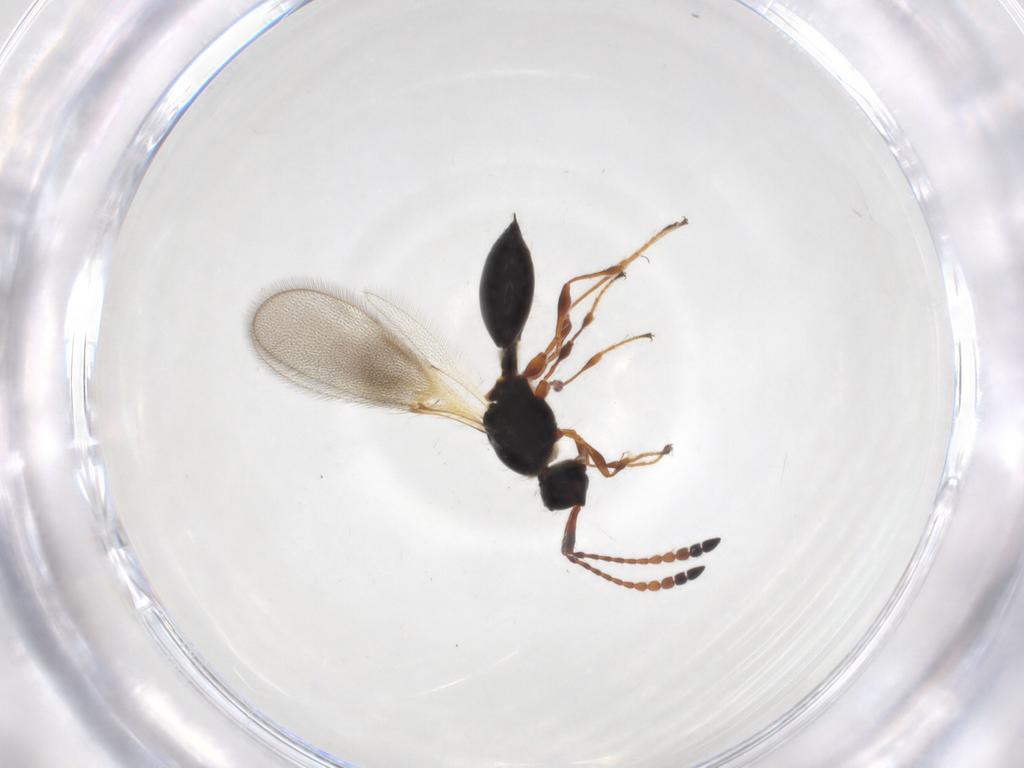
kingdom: Animalia
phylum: Arthropoda
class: Insecta
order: Hymenoptera
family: Diapriidae
